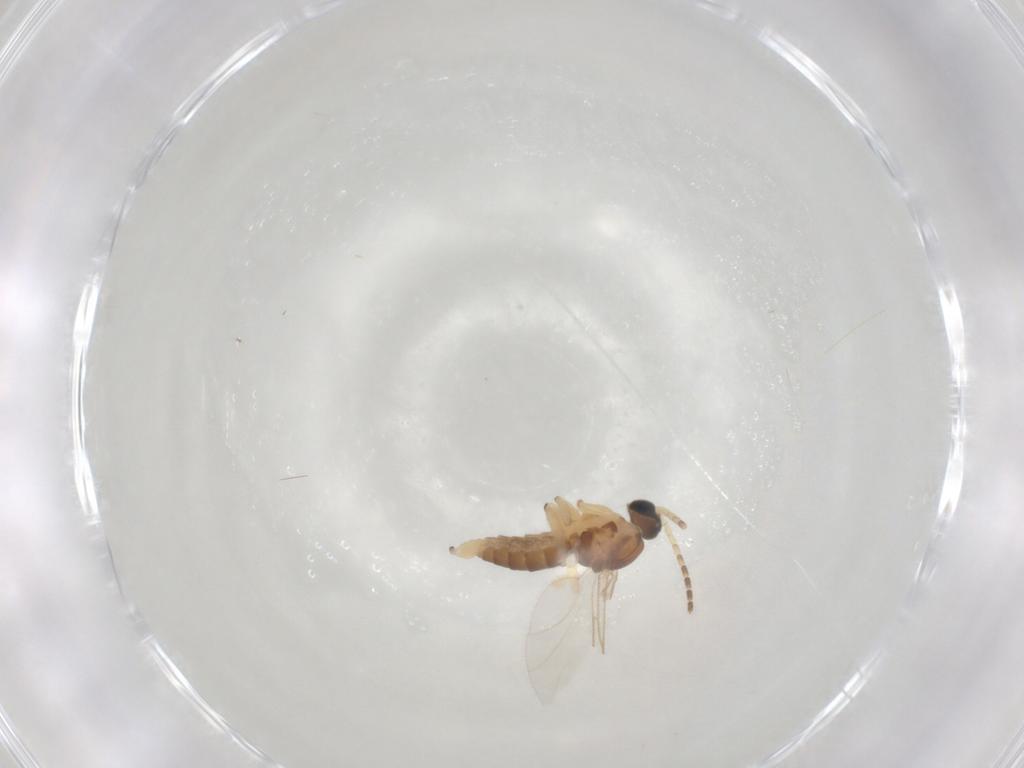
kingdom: Animalia
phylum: Arthropoda
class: Insecta
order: Diptera
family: Sciaridae
